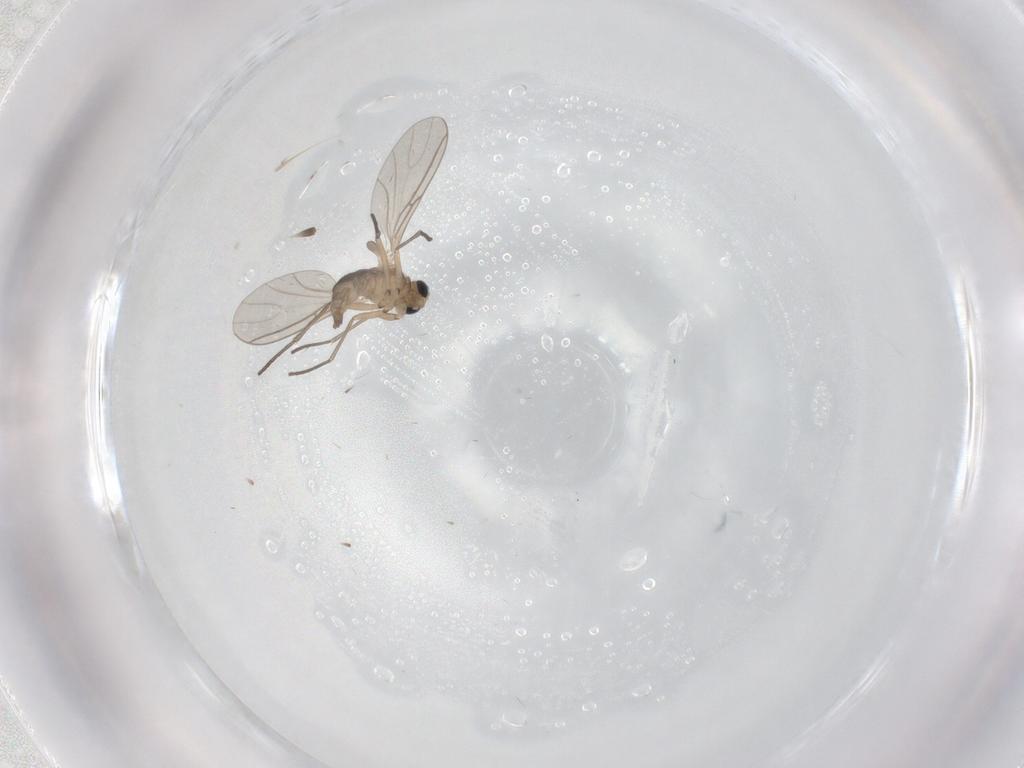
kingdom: Animalia
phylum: Arthropoda
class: Insecta
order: Diptera
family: Sciaridae
